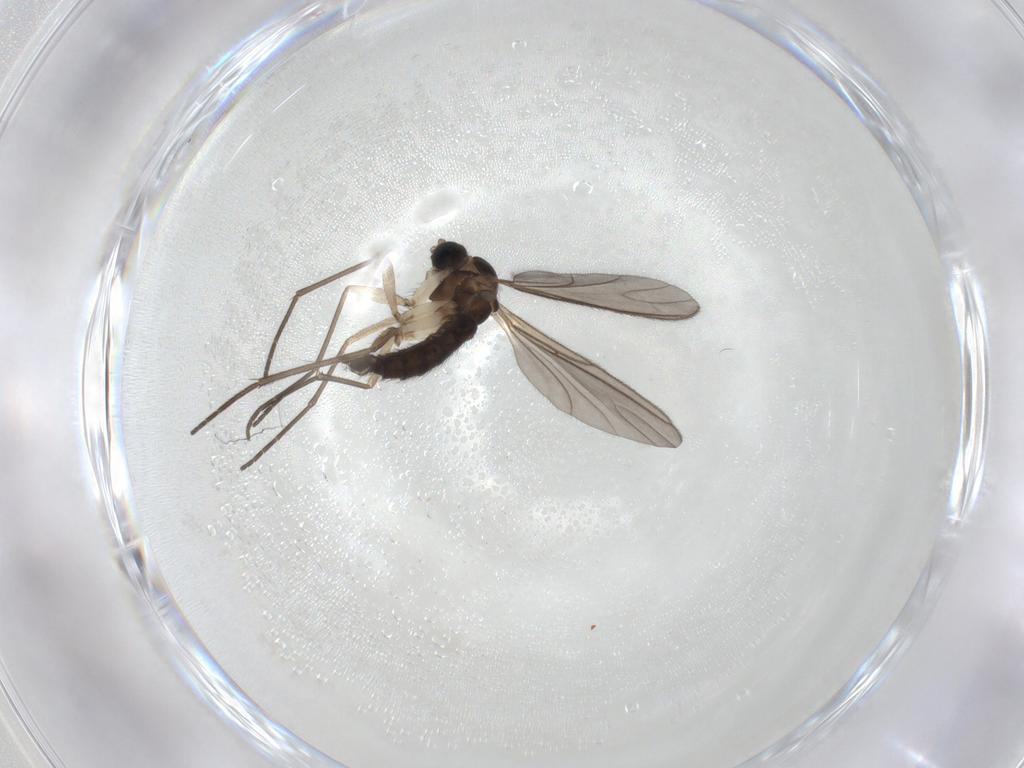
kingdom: Animalia
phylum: Arthropoda
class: Insecta
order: Diptera
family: Sciaridae
